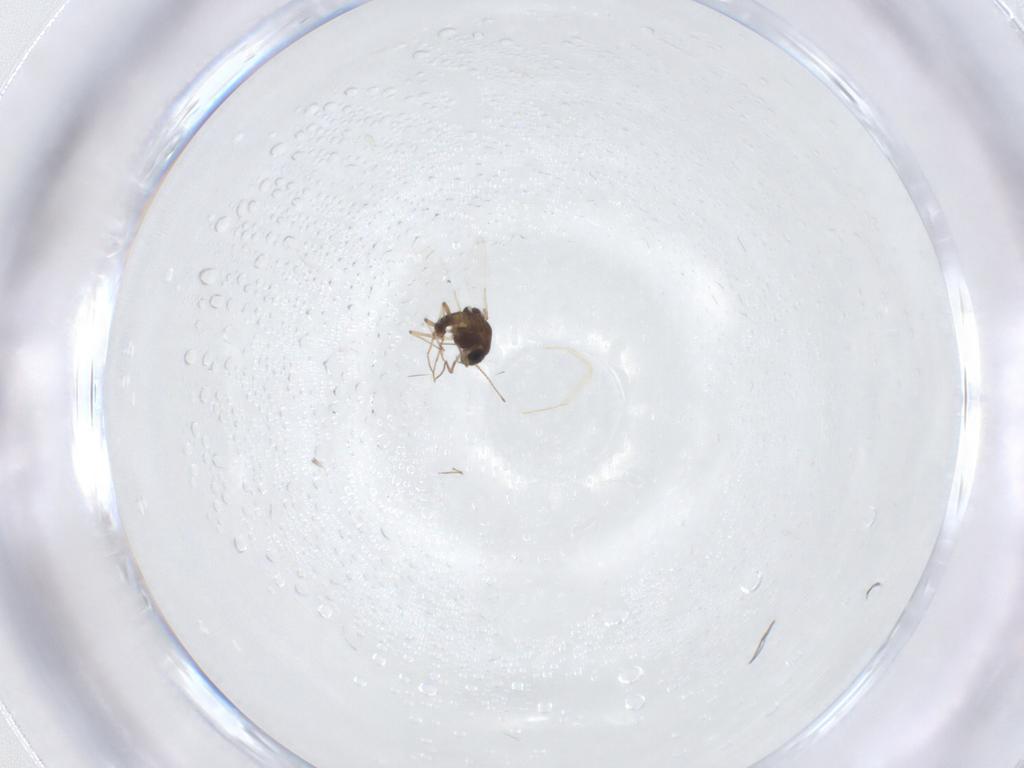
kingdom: Animalia
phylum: Arthropoda
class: Insecta
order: Diptera
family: Chironomidae
